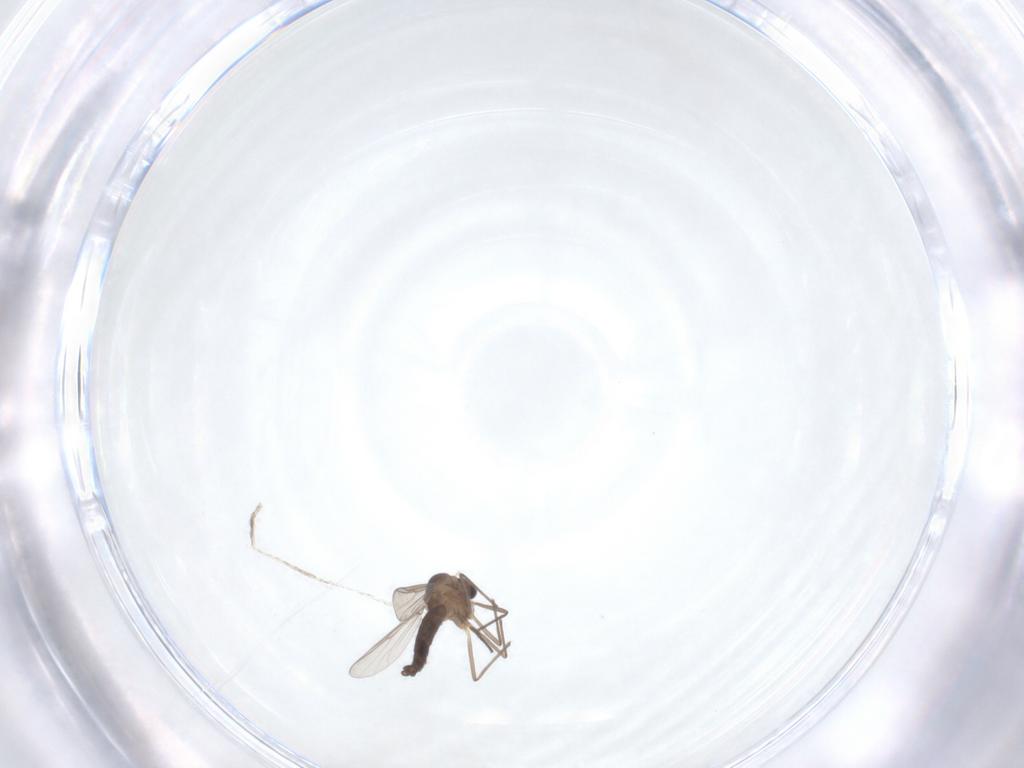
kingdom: Animalia
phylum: Arthropoda
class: Insecta
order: Diptera
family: Chironomidae
